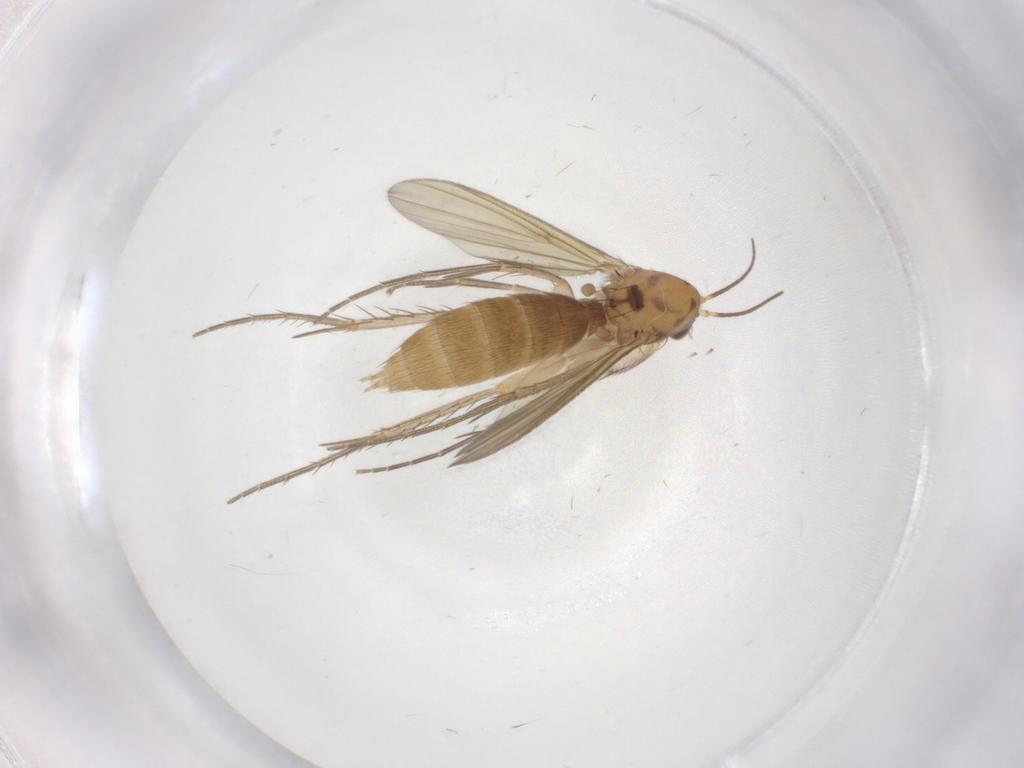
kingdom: Animalia
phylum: Arthropoda
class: Insecta
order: Diptera
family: Mycetophilidae
